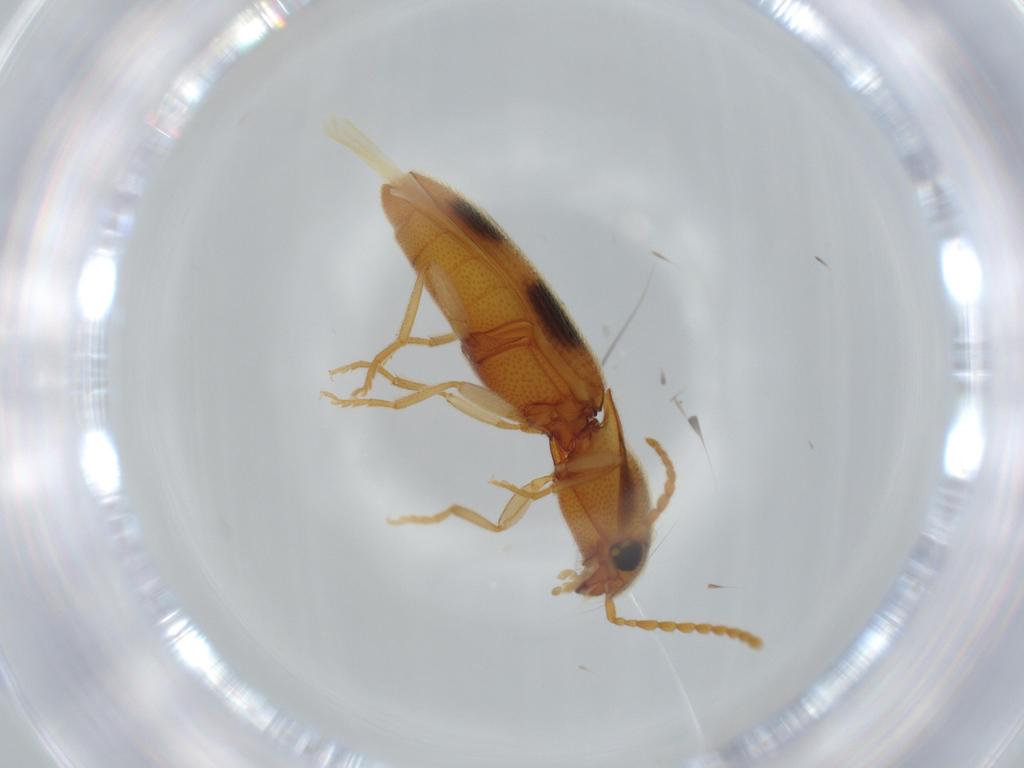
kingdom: Animalia
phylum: Arthropoda
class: Insecta
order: Coleoptera
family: Elateridae
